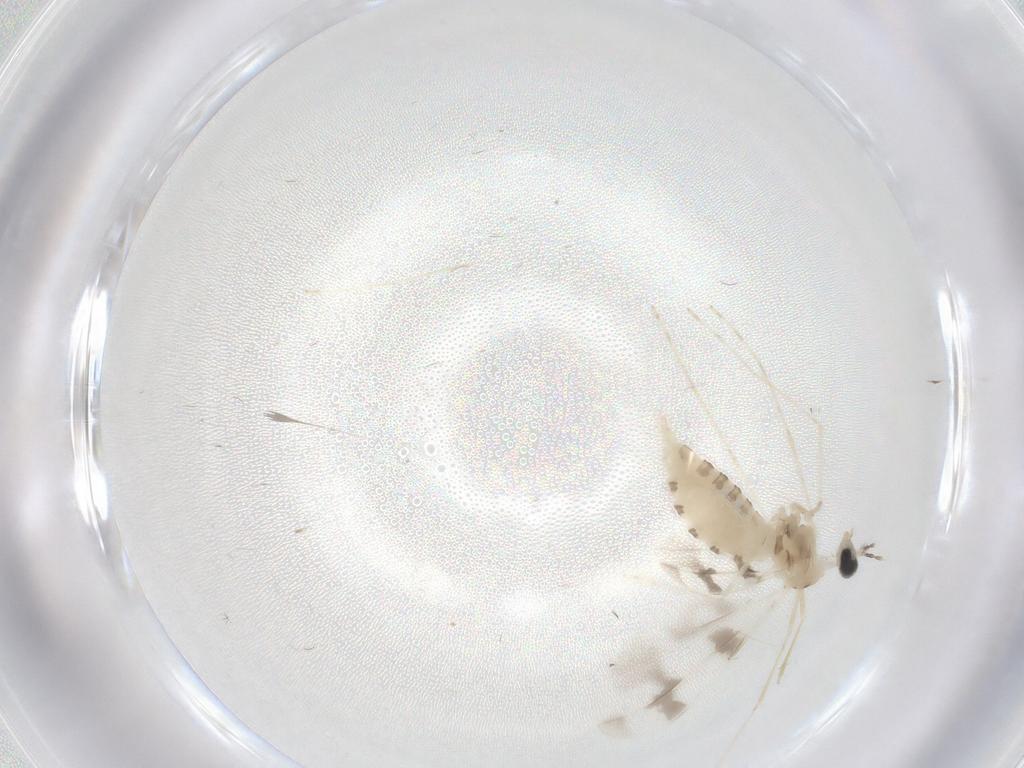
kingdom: Animalia
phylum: Arthropoda
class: Insecta
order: Diptera
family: Cecidomyiidae
